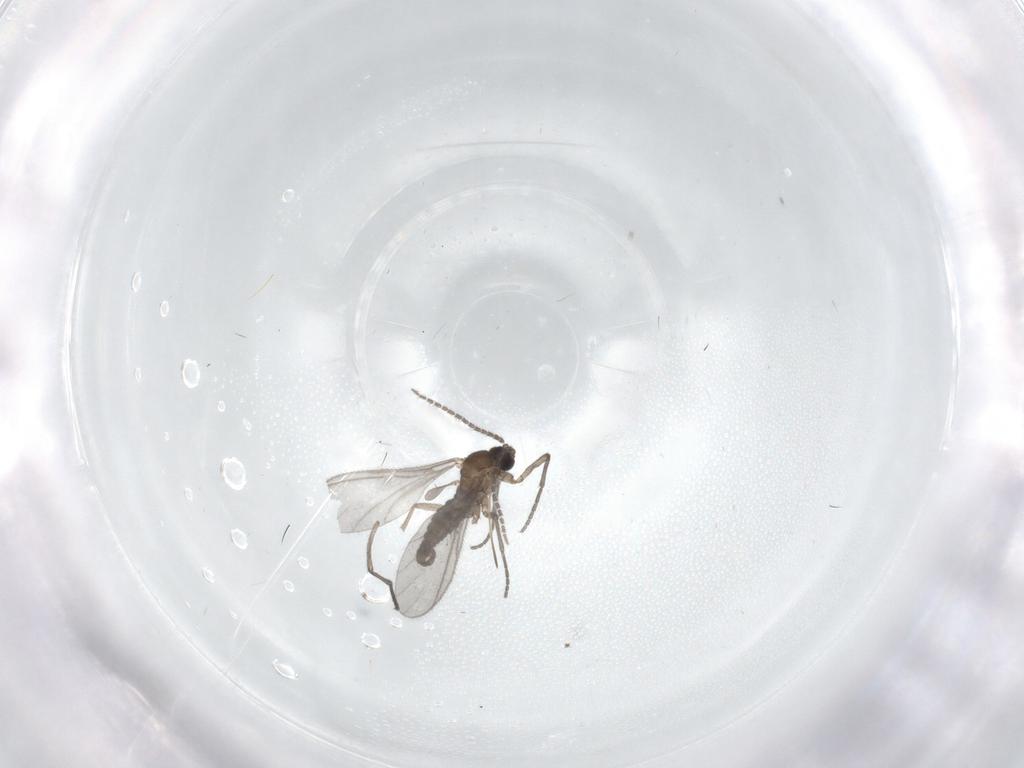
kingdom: Animalia
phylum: Arthropoda
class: Insecta
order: Diptera
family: Sciaridae
